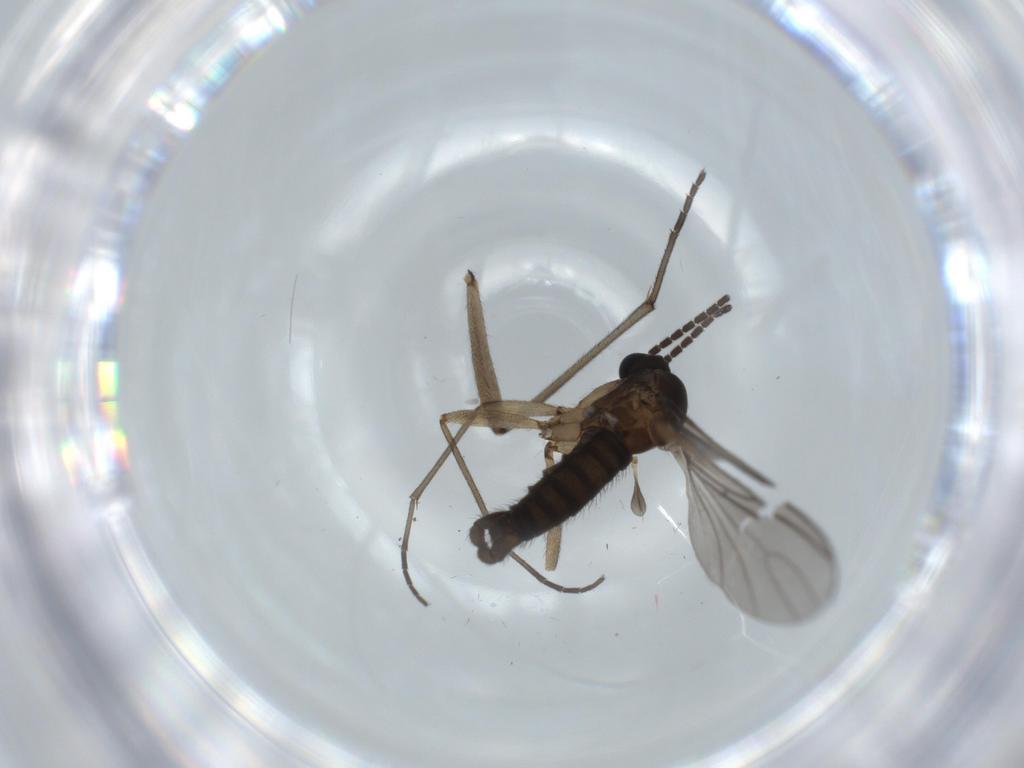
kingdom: Animalia
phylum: Arthropoda
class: Insecta
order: Diptera
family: Sciaridae
